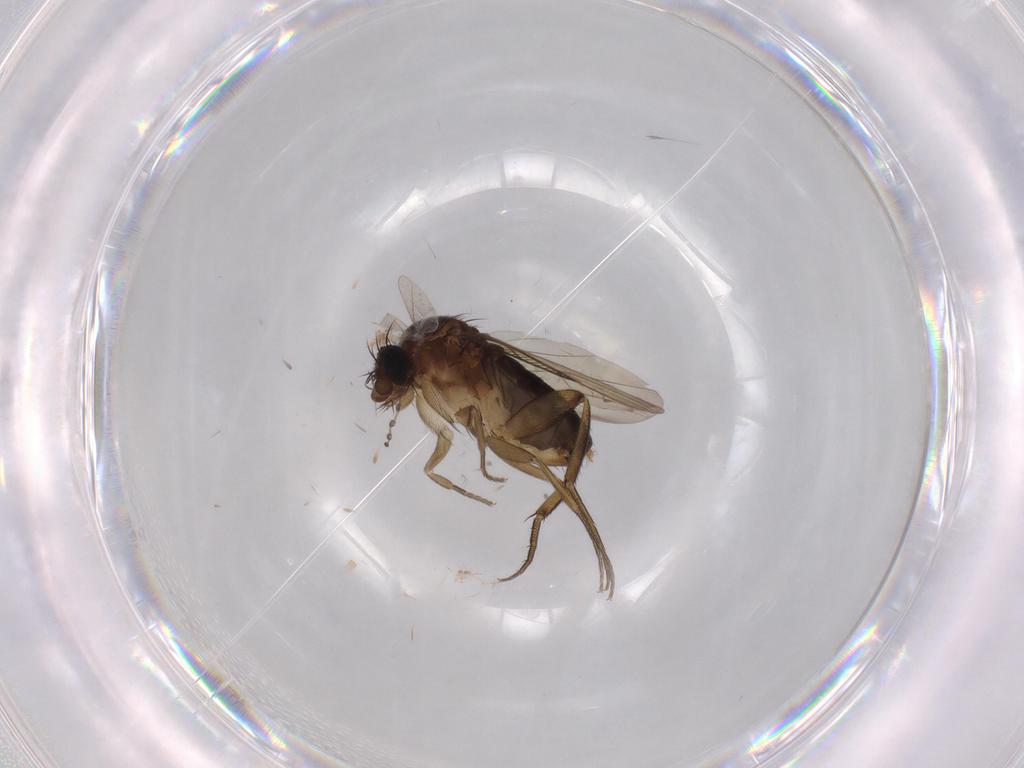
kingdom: Animalia
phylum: Arthropoda
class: Insecta
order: Diptera
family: Phoridae
